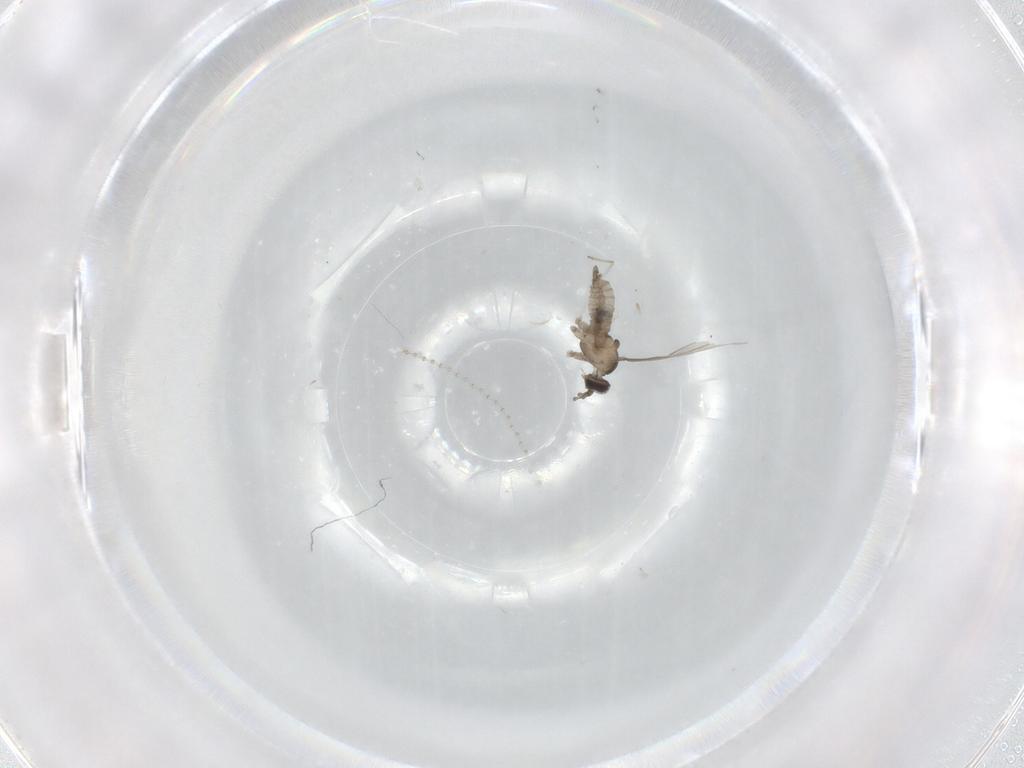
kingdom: Animalia
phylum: Arthropoda
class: Insecta
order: Diptera
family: Cecidomyiidae
